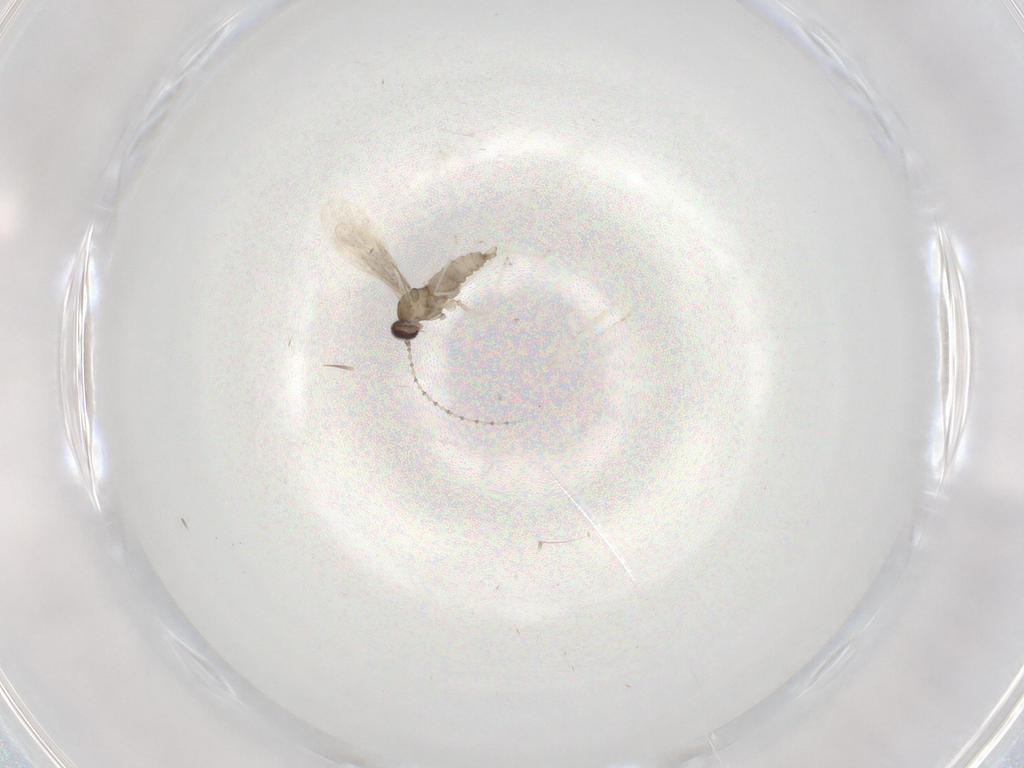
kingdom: Animalia
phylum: Arthropoda
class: Insecta
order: Diptera
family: Cecidomyiidae
